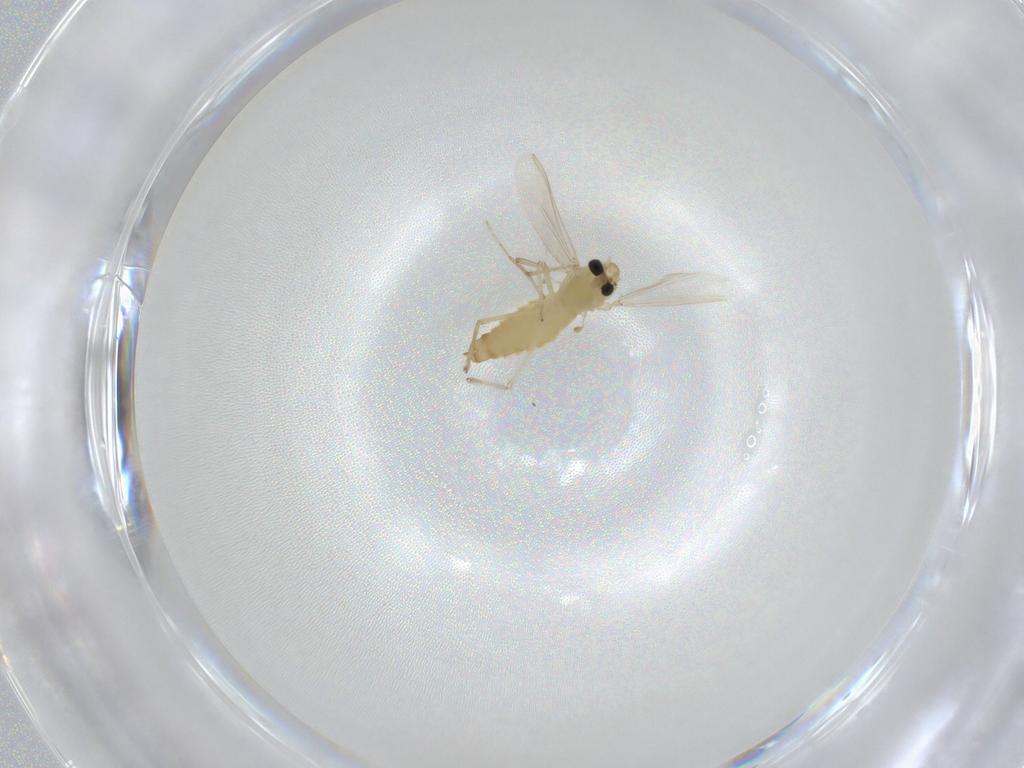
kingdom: Animalia
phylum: Arthropoda
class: Insecta
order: Diptera
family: Chironomidae
